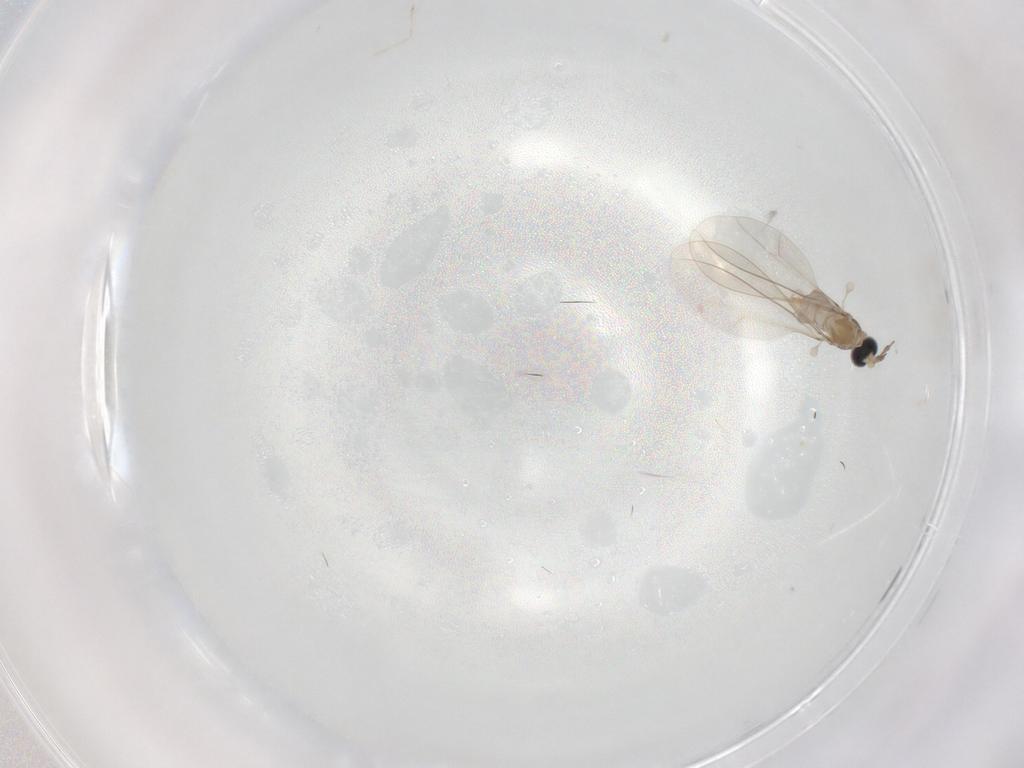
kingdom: Animalia
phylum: Arthropoda
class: Insecta
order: Diptera
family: Cecidomyiidae
